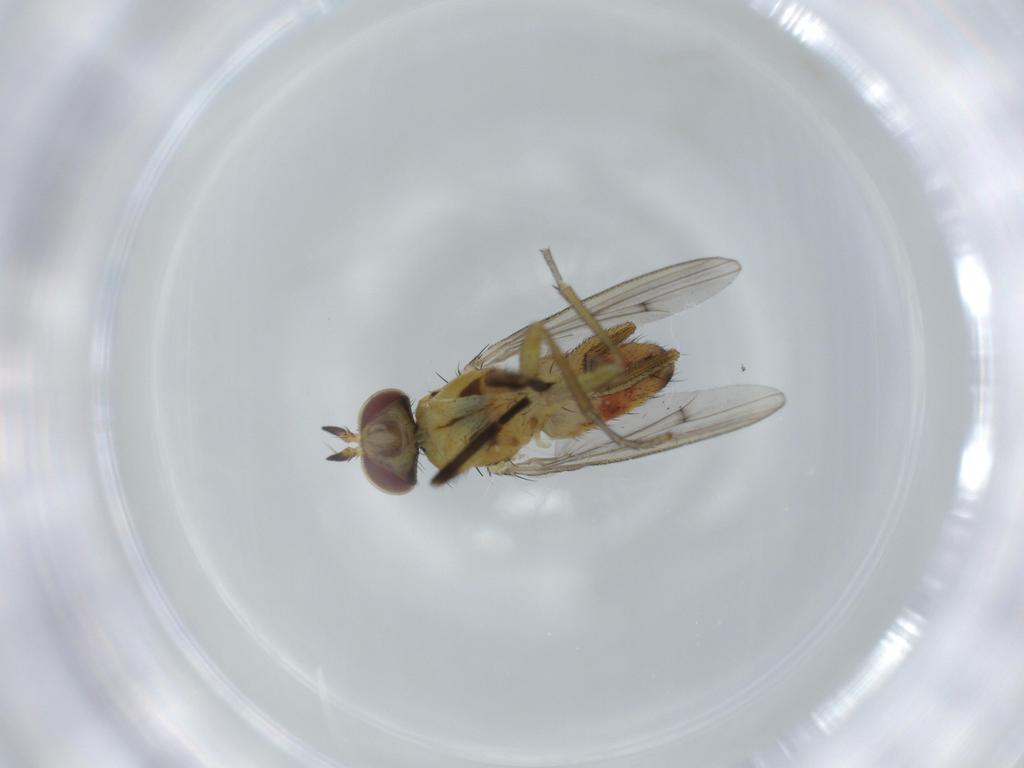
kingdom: Animalia
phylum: Arthropoda
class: Insecta
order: Diptera
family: Sciomyzidae
